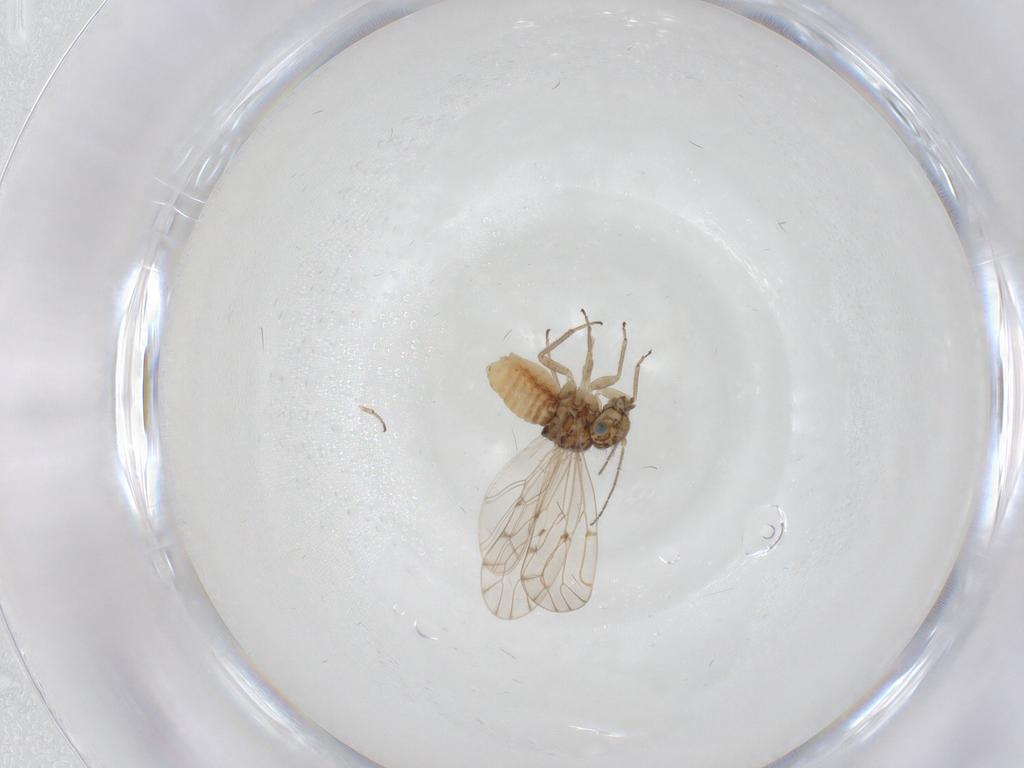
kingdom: Animalia
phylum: Arthropoda
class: Insecta
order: Psocodea
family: Ectopsocidae
